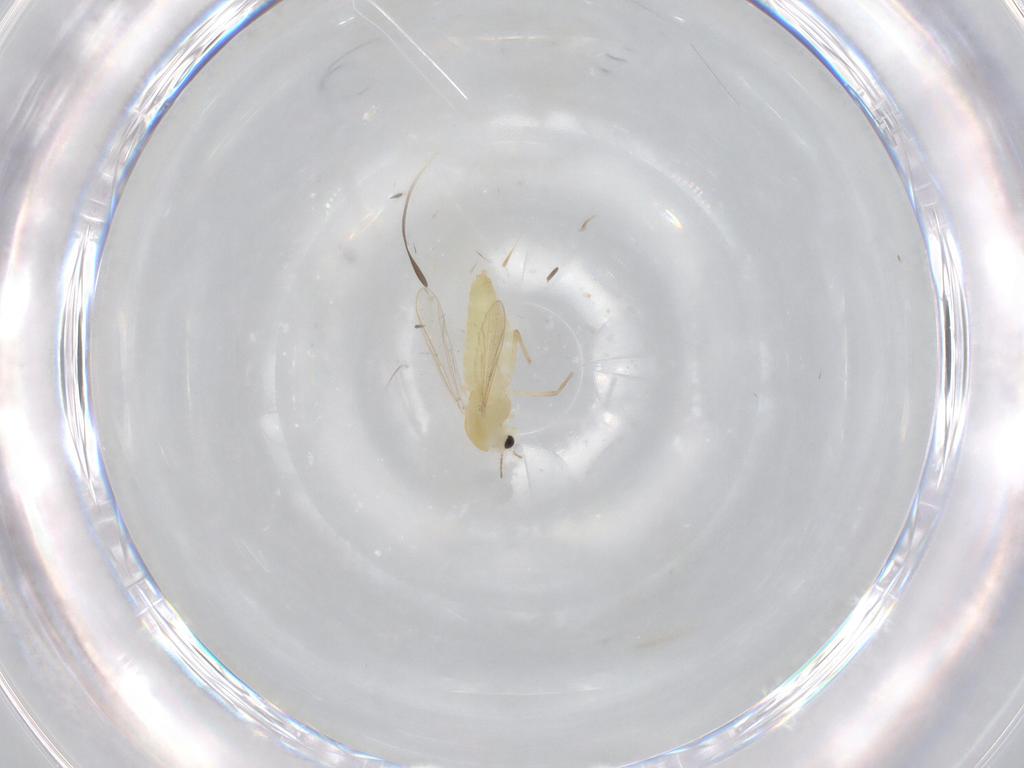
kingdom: Animalia
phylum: Arthropoda
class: Insecta
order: Diptera
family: Chironomidae
